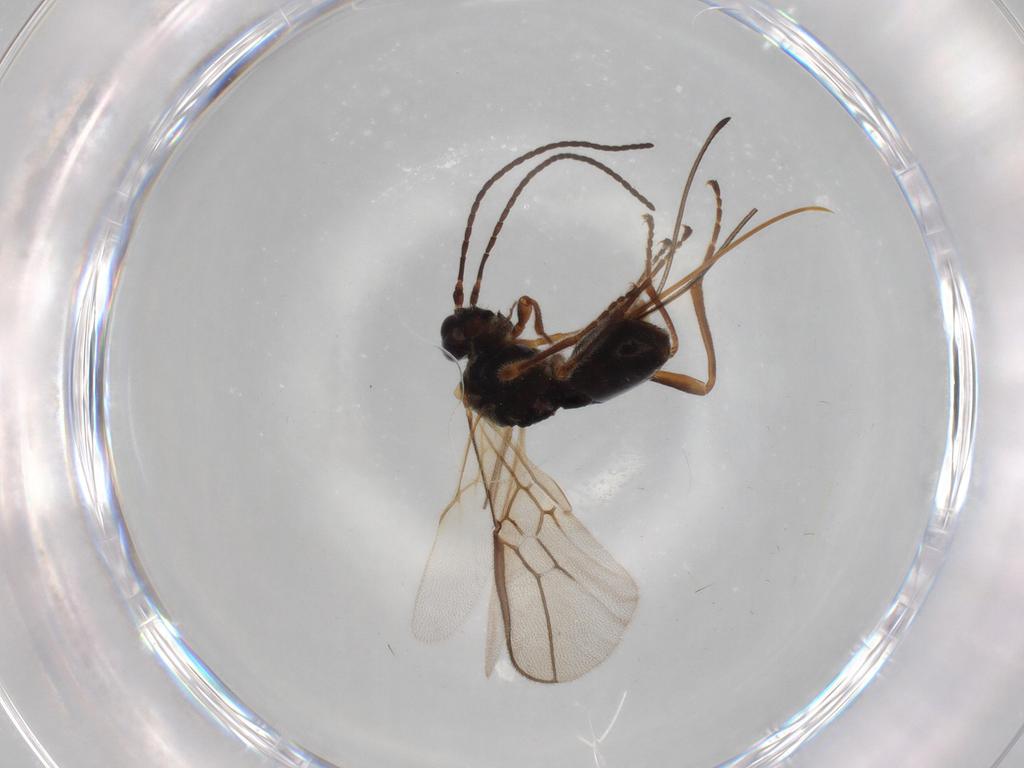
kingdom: Animalia
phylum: Arthropoda
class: Insecta
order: Hymenoptera
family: Braconidae
